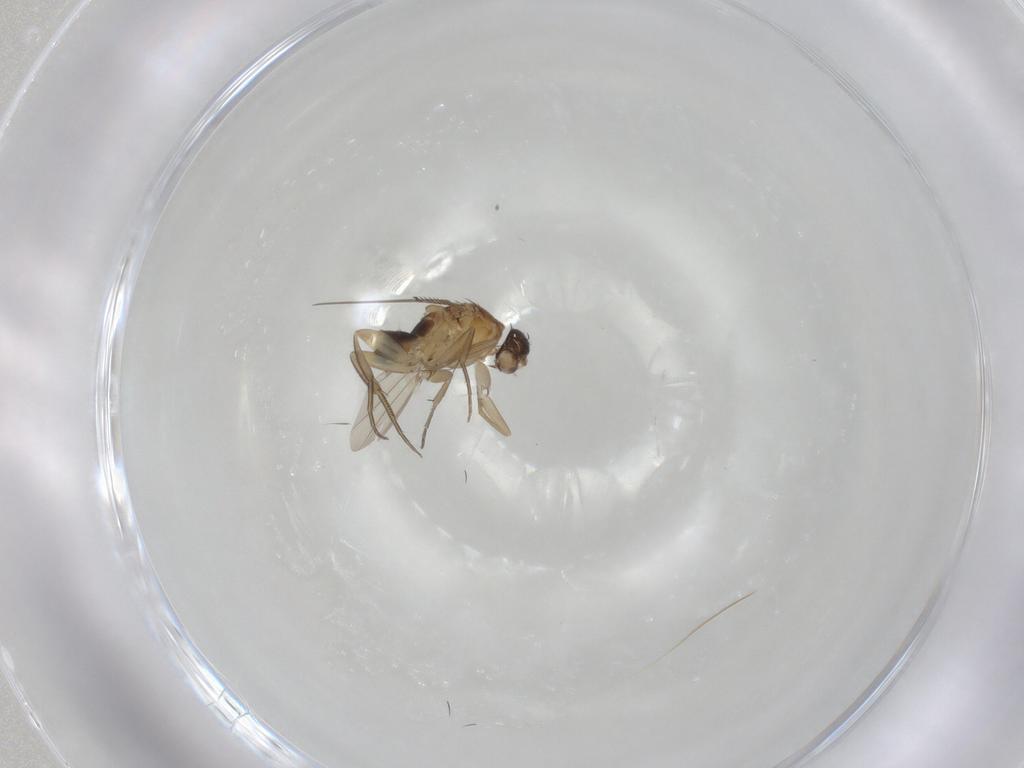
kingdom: Animalia
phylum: Arthropoda
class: Insecta
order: Diptera
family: Phoridae
